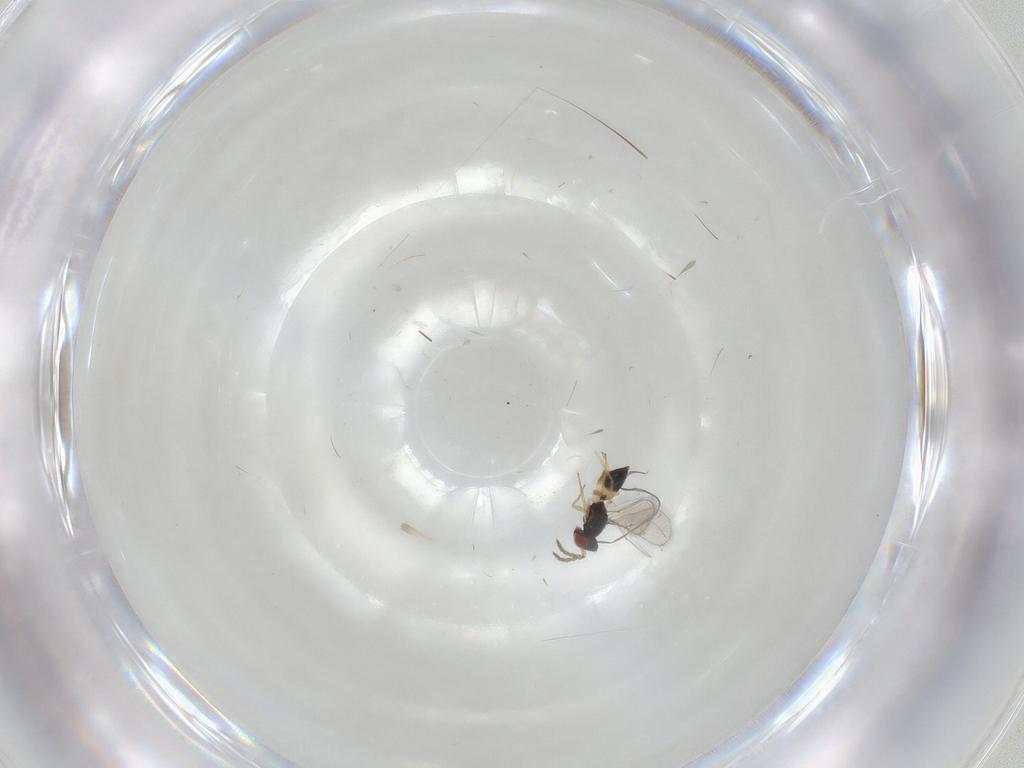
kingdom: Animalia
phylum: Arthropoda
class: Insecta
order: Hymenoptera
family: Eulophidae
